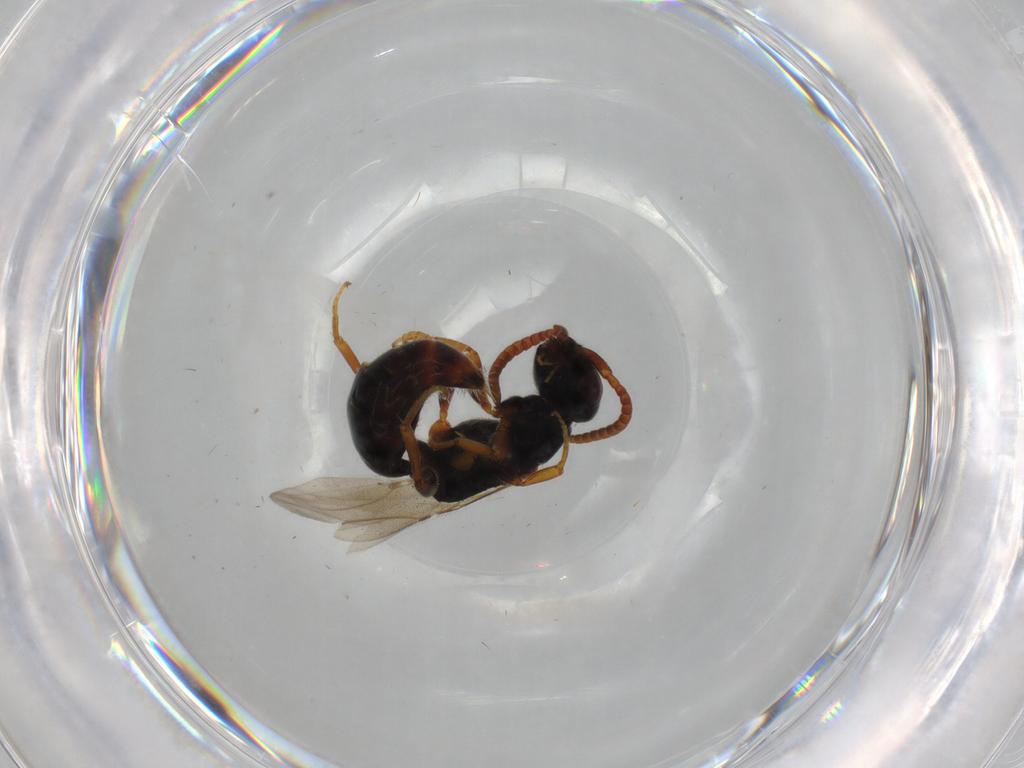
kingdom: Animalia
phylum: Arthropoda
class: Insecta
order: Hymenoptera
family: Bethylidae
